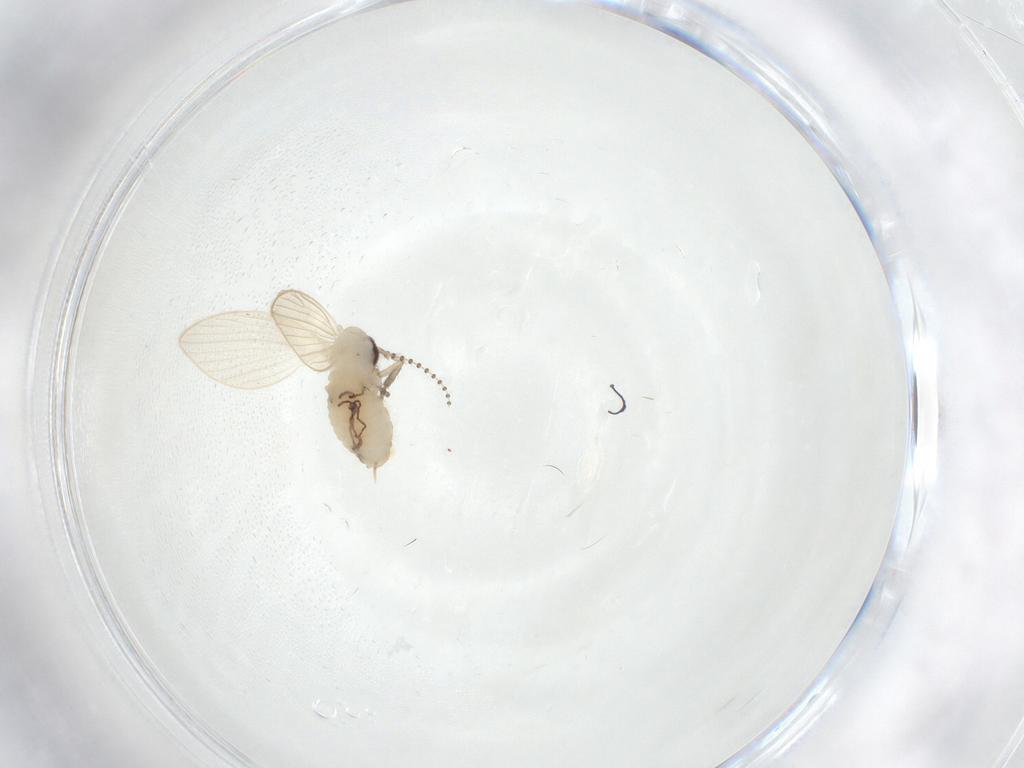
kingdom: Animalia
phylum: Arthropoda
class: Insecta
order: Diptera
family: Psychodidae
